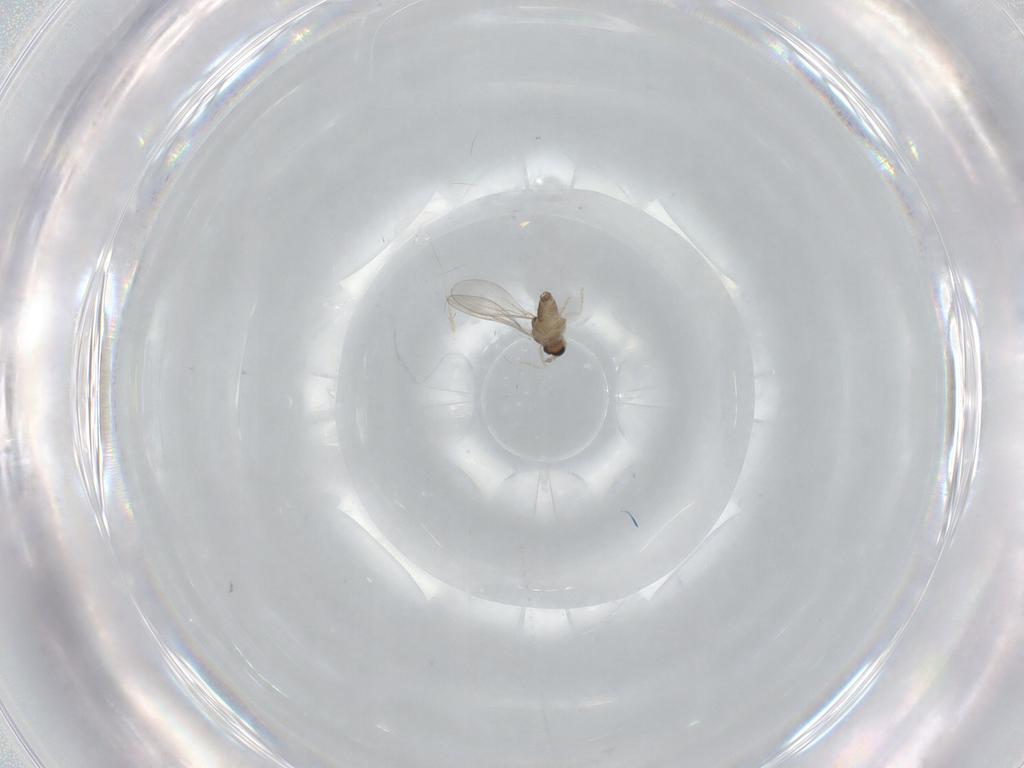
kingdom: Animalia
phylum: Arthropoda
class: Insecta
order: Diptera
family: Cecidomyiidae
